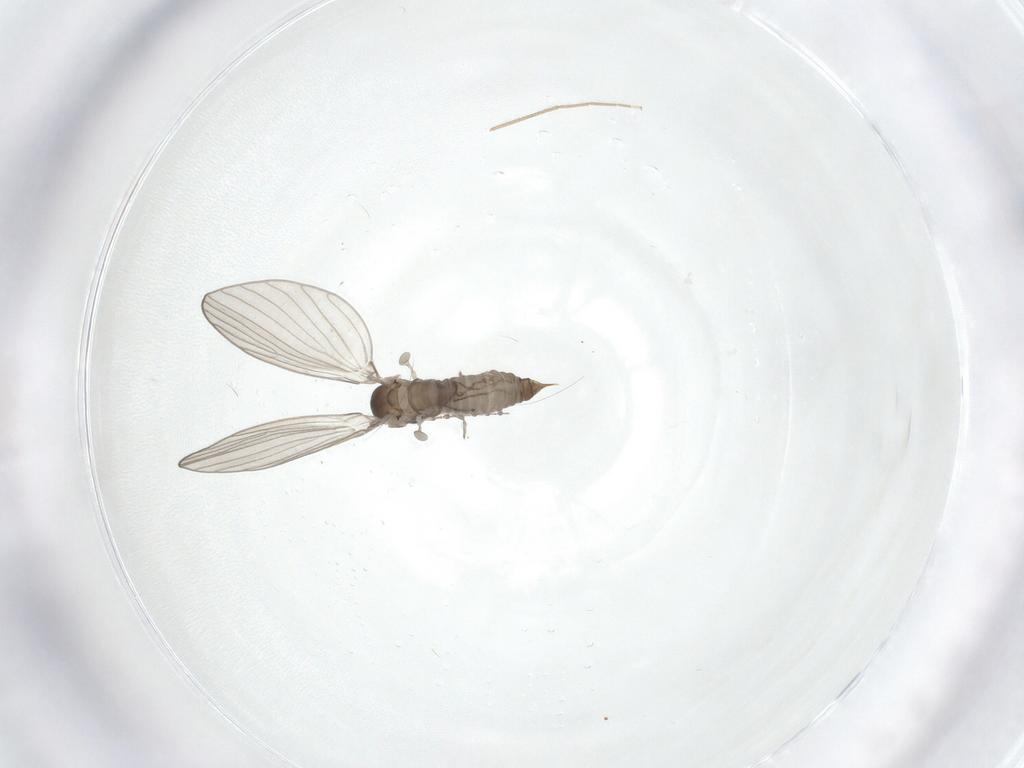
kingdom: Animalia
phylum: Arthropoda
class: Insecta
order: Diptera
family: Chironomidae
